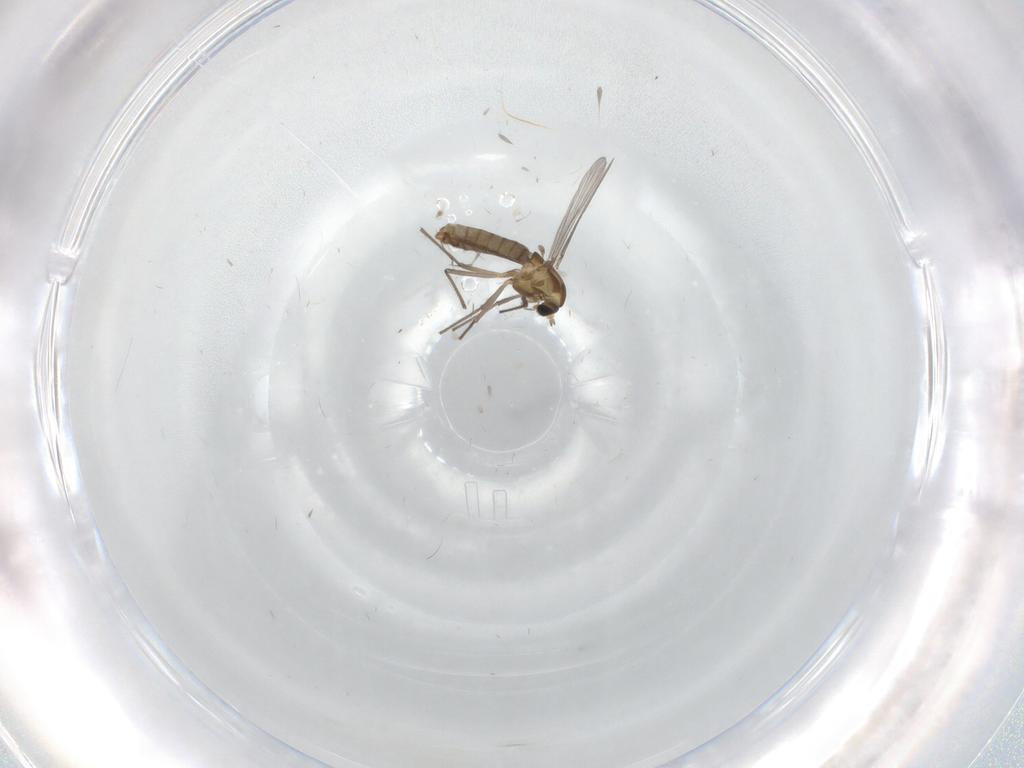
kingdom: Animalia
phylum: Arthropoda
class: Insecta
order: Diptera
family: Tabanidae
